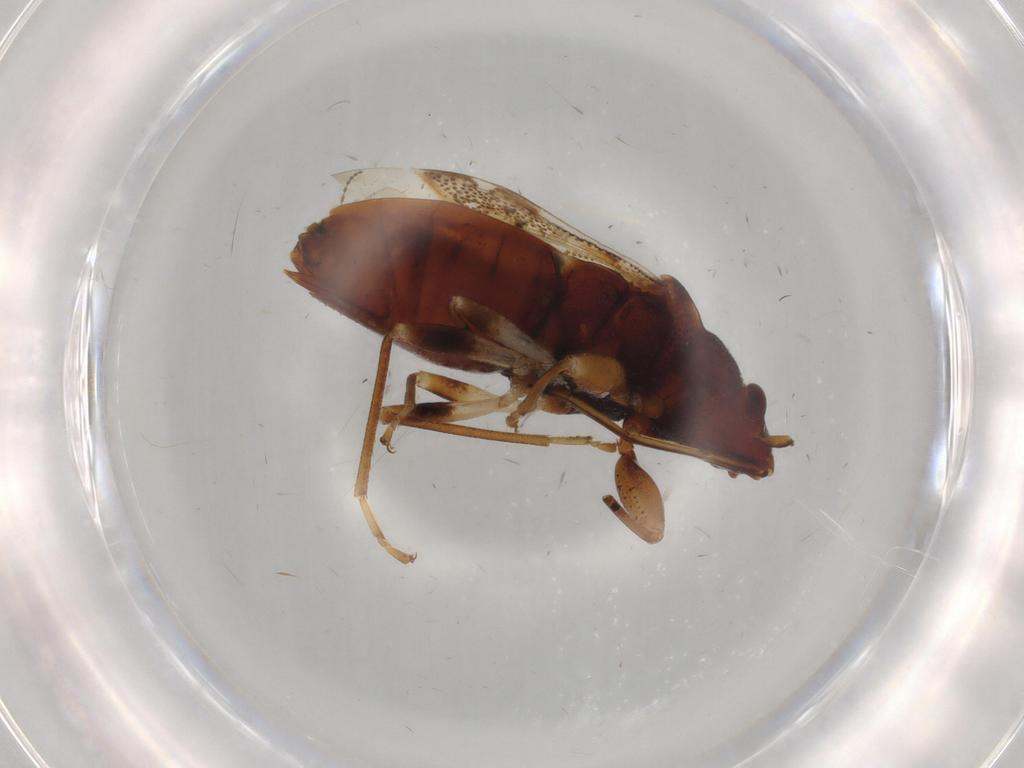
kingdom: Animalia
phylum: Arthropoda
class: Insecta
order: Hemiptera
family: Rhyparochromidae
